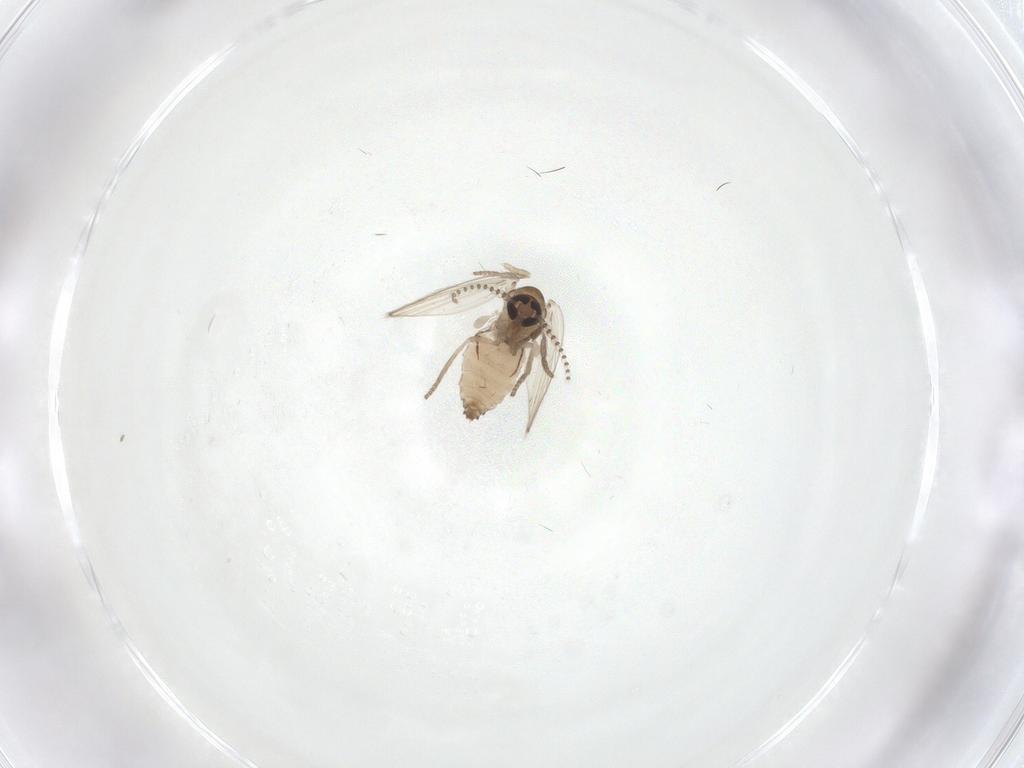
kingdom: Animalia
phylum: Arthropoda
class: Insecta
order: Diptera
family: Psychodidae
